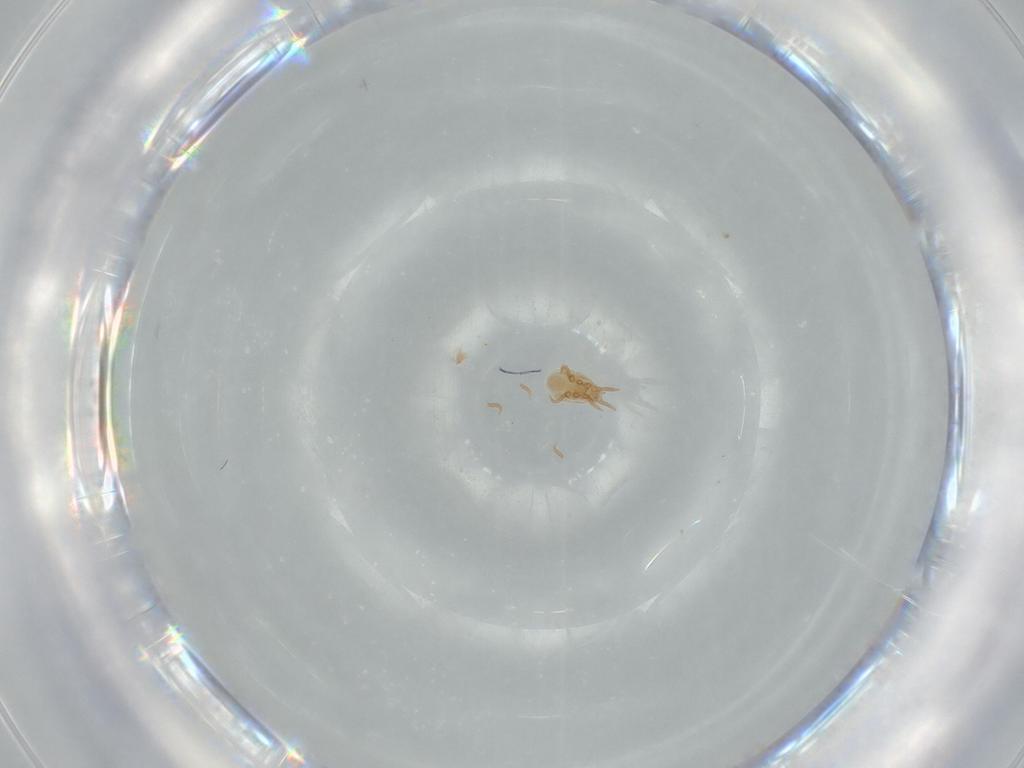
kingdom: Animalia
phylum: Arthropoda
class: Arachnida
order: Mesostigmata
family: Dinychidae
